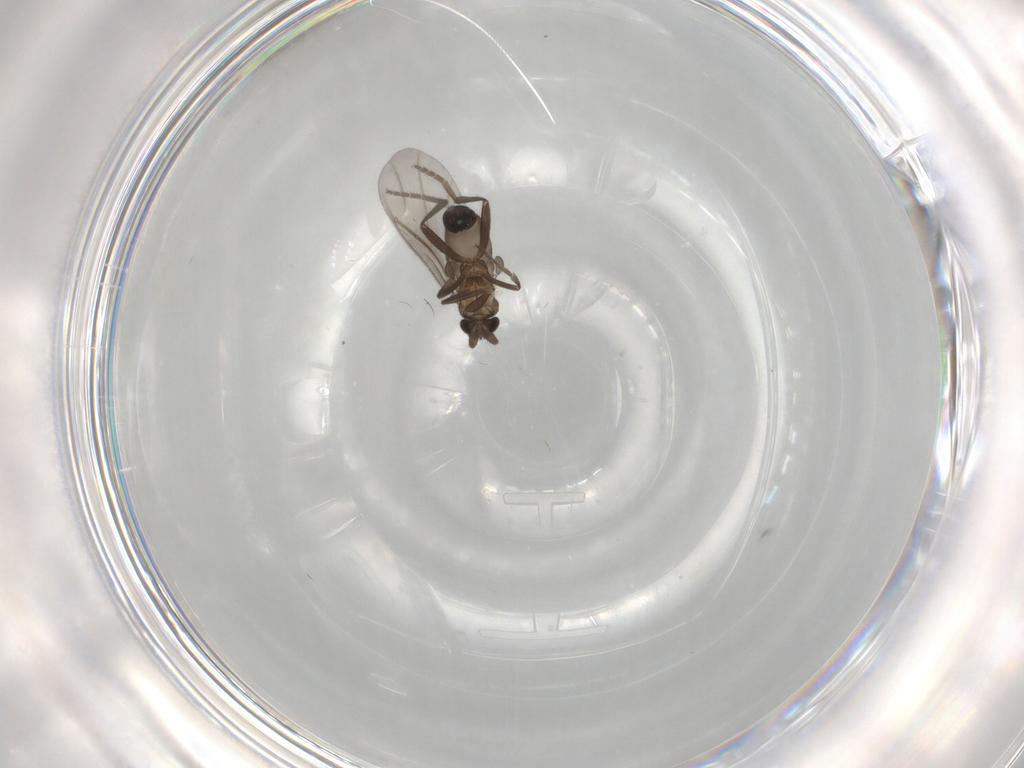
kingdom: Animalia
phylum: Arthropoda
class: Insecta
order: Diptera
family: Phoridae
